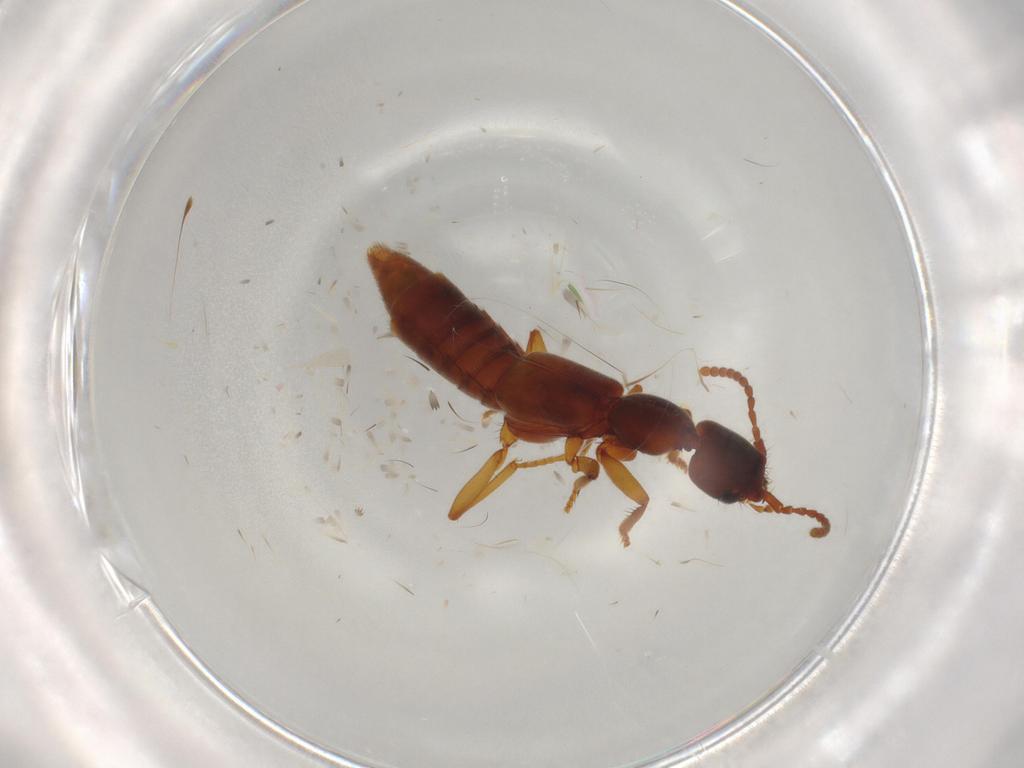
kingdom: Animalia
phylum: Arthropoda
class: Insecta
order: Coleoptera
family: Staphylinidae
